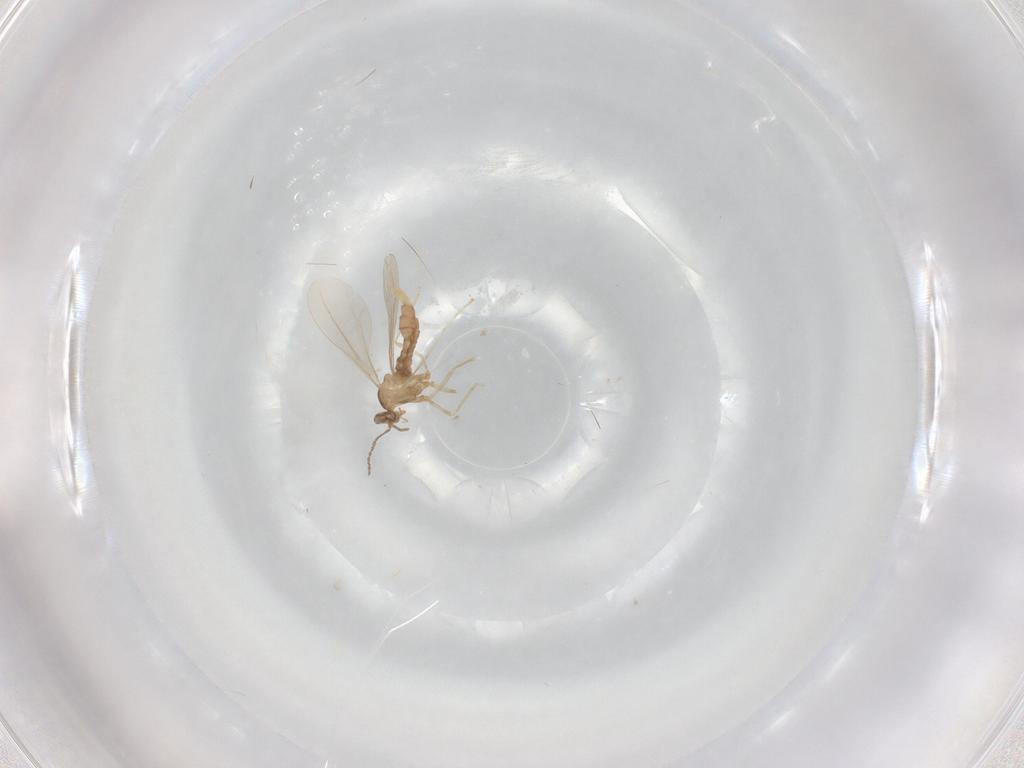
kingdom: Animalia
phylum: Arthropoda
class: Insecta
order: Diptera
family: Cecidomyiidae
